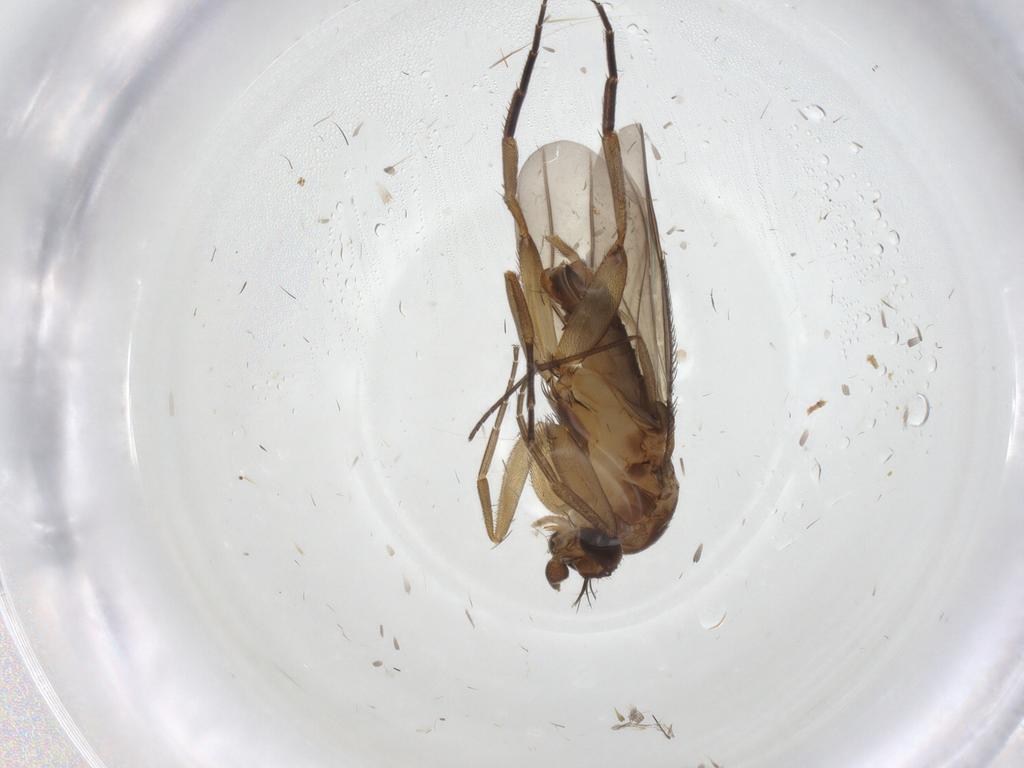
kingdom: Animalia
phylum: Arthropoda
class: Insecta
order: Diptera
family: Phoridae
